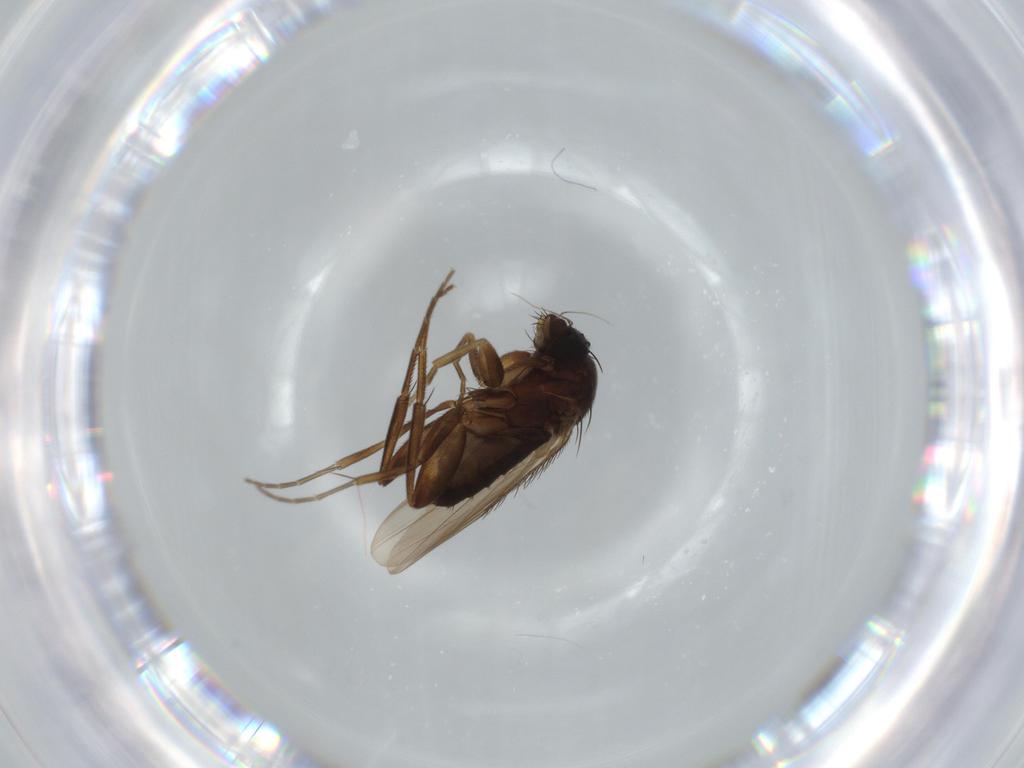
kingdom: Animalia
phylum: Arthropoda
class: Insecta
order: Diptera
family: Phoridae
